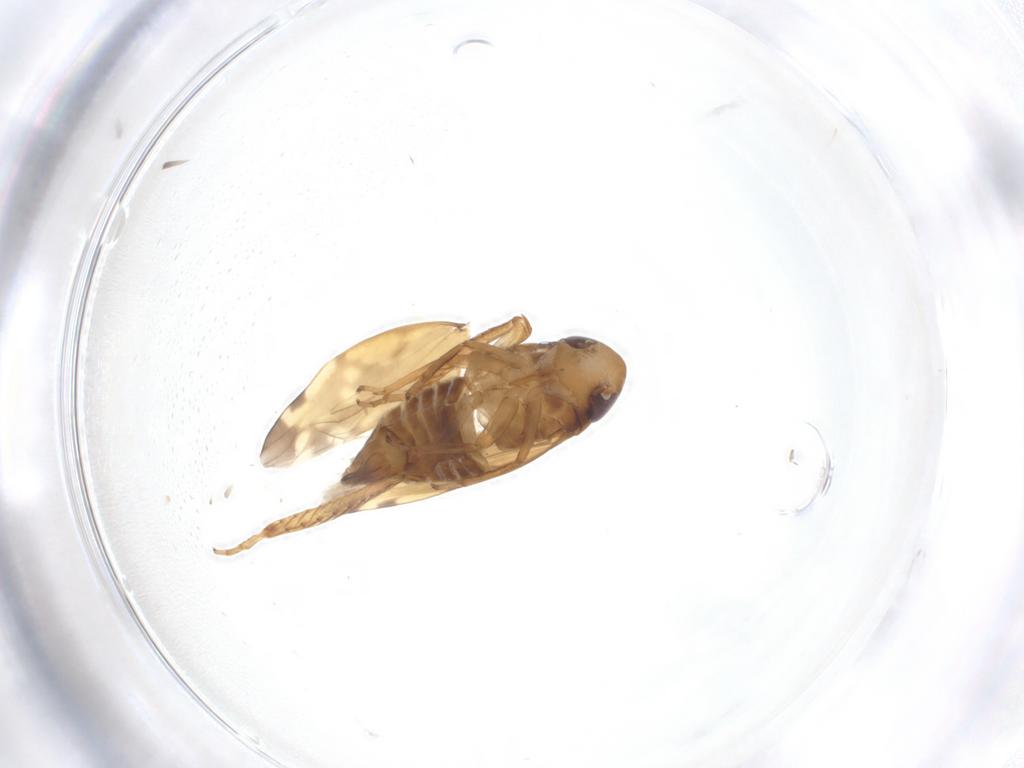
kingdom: Animalia
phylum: Arthropoda
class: Insecta
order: Hemiptera
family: Cicadellidae
